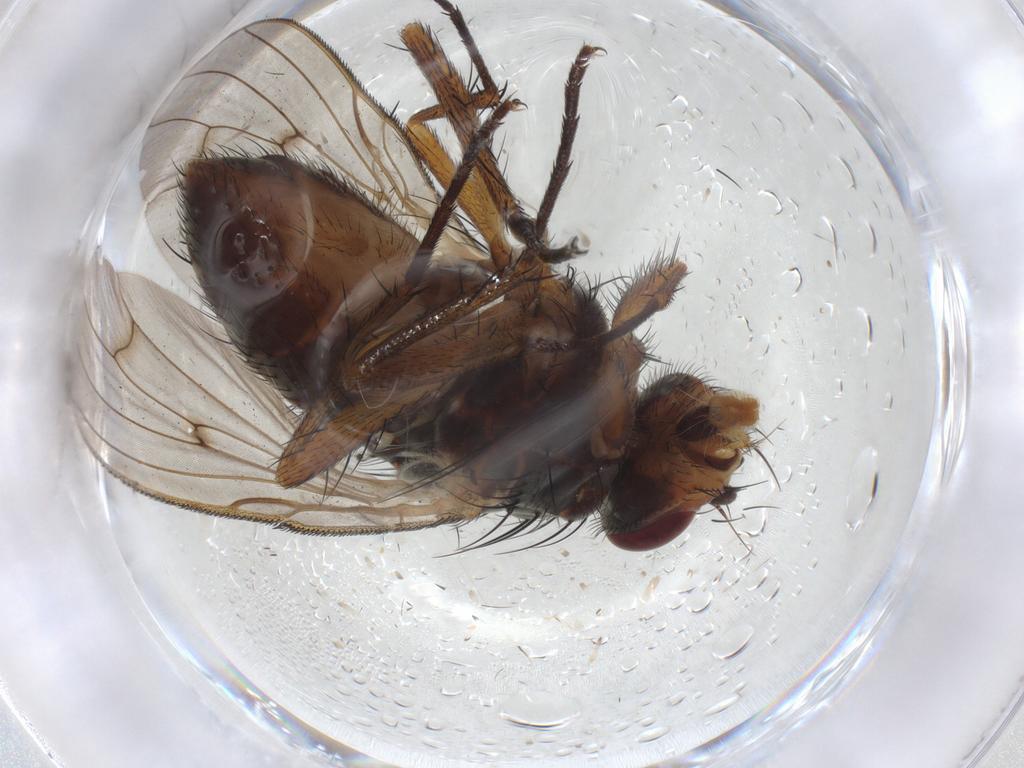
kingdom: Animalia
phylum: Arthropoda
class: Insecta
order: Diptera
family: Anthomyiidae
